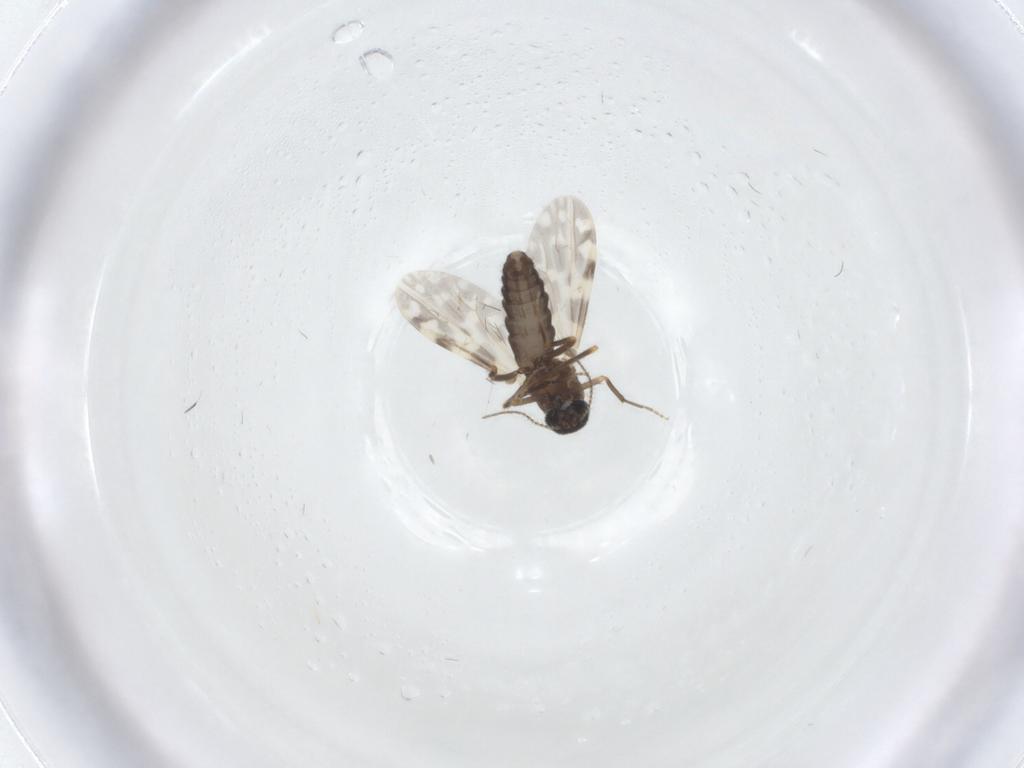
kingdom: Animalia
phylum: Arthropoda
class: Insecta
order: Diptera
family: Ceratopogonidae
